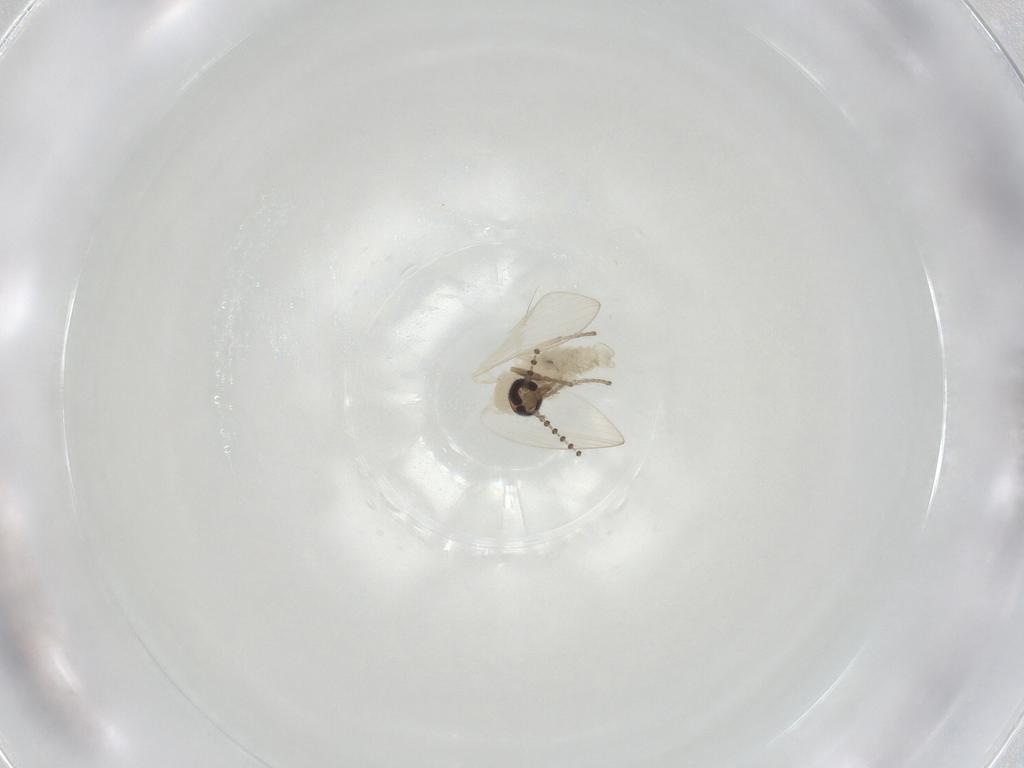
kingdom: Animalia
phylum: Arthropoda
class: Insecta
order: Diptera
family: Psychodidae
